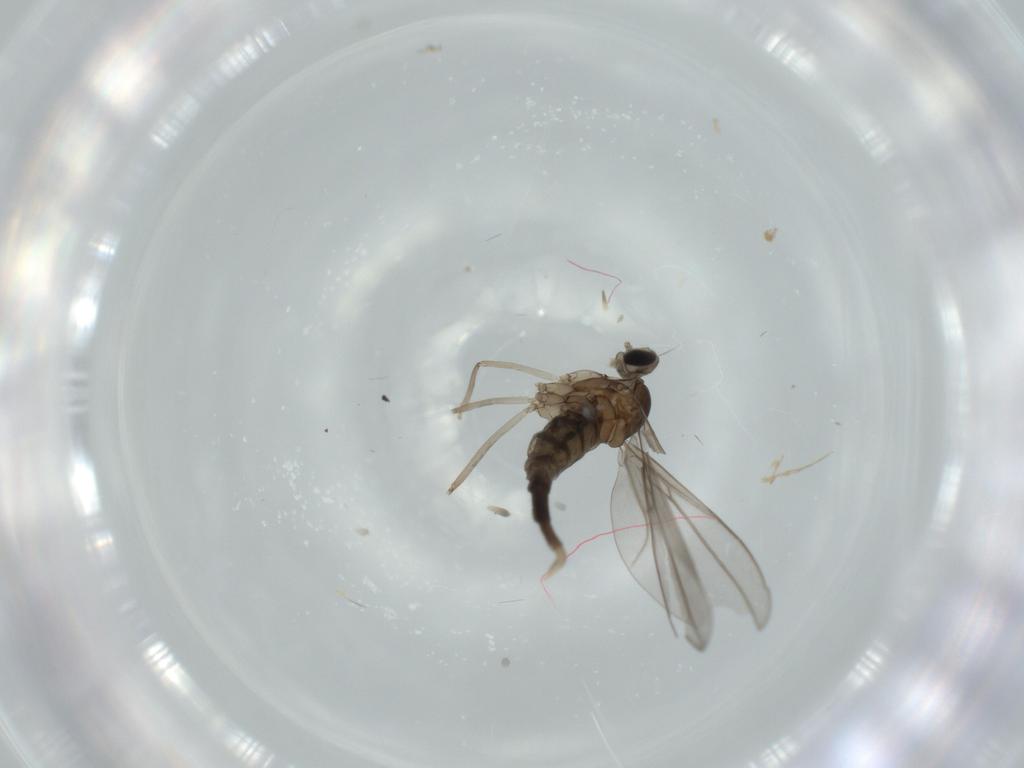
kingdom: Animalia
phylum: Arthropoda
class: Insecta
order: Diptera
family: Cecidomyiidae
